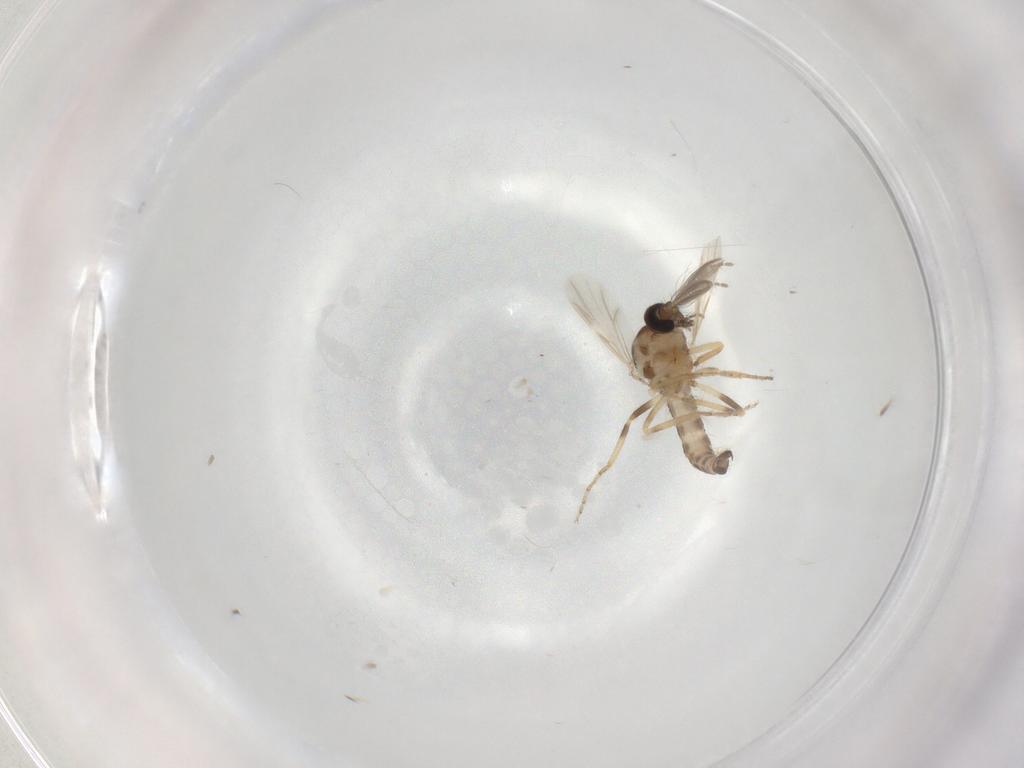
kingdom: Animalia
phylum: Arthropoda
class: Insecta
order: Diptera
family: Ceratopogonidae
